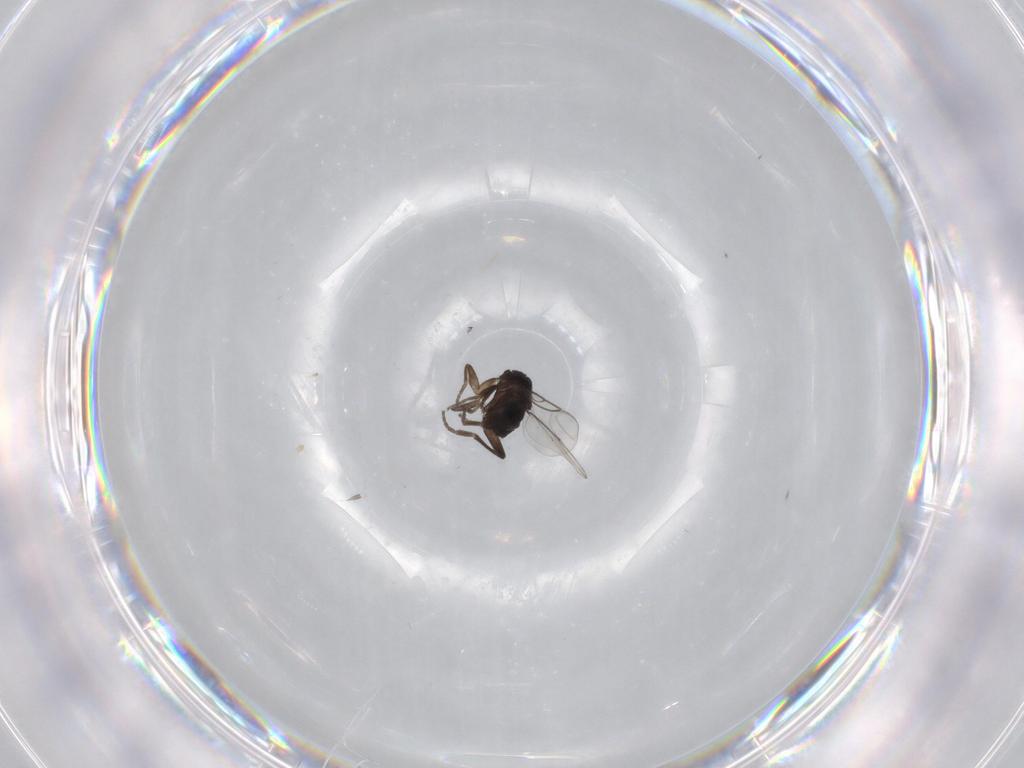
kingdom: Animalia
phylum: Arthropoda
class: Insecta
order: Diptera
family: Phoridae
